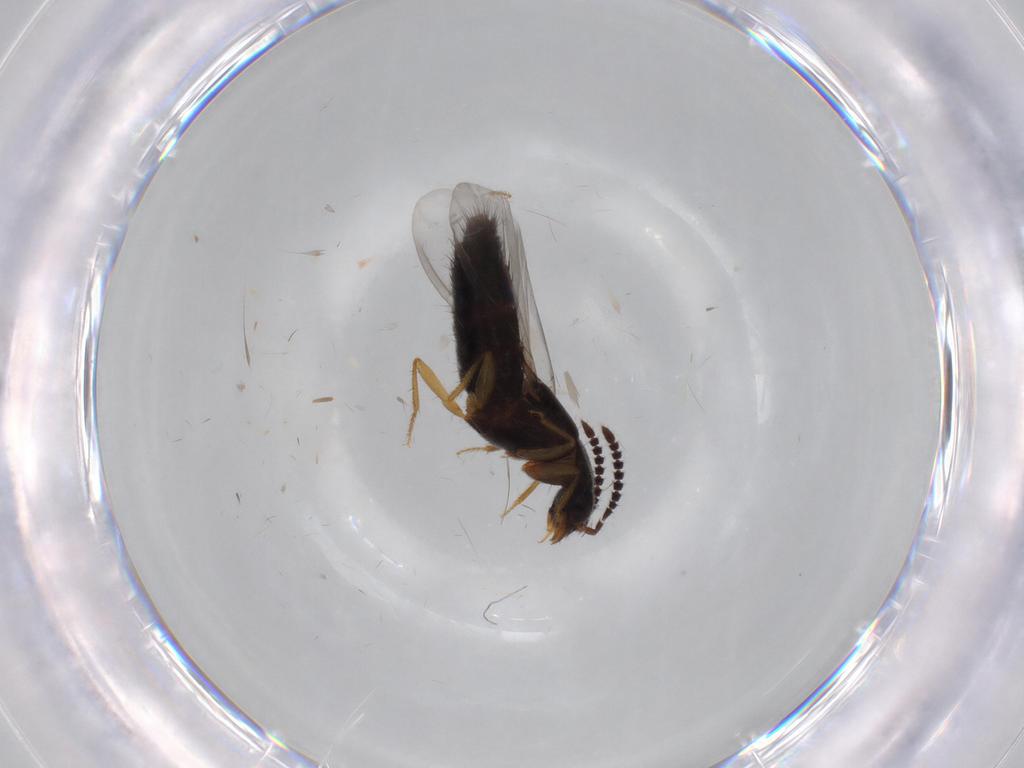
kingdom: Animalia
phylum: Arthropoda
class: Insecta
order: Coleoptera
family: Staphylinidae
